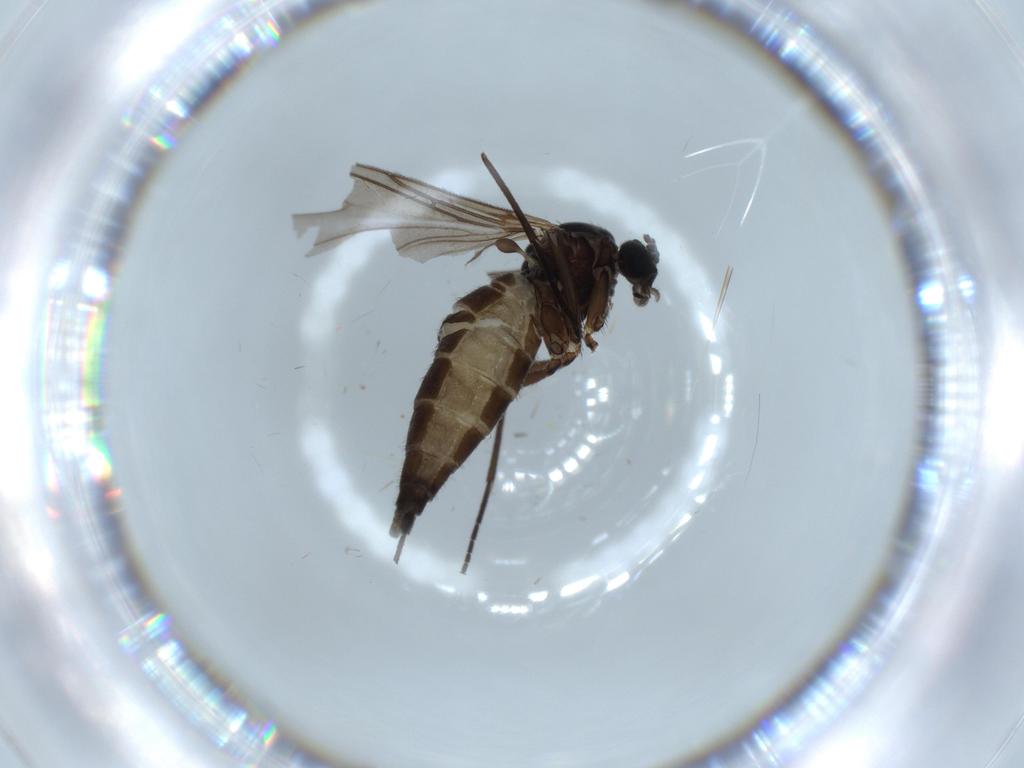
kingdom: Animalia
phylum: Arthropoda
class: Insecta
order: Diptera
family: Sciaridae
